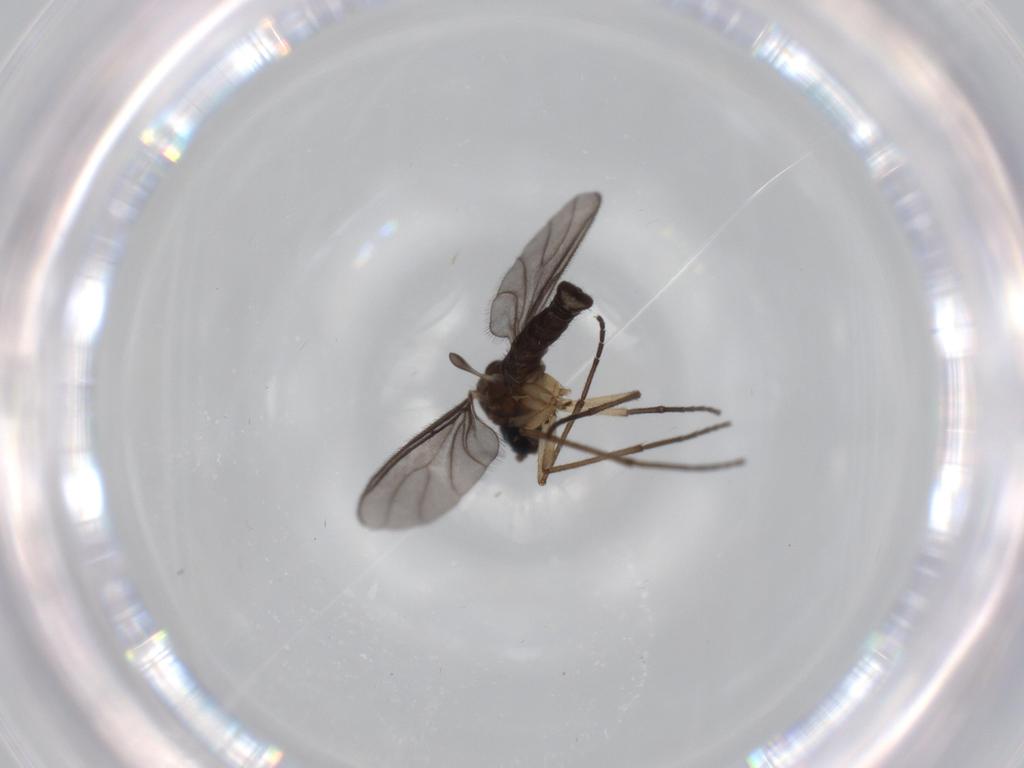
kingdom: Animalia
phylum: Arthropoda
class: Insecta
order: Diptera
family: Sciaridae
